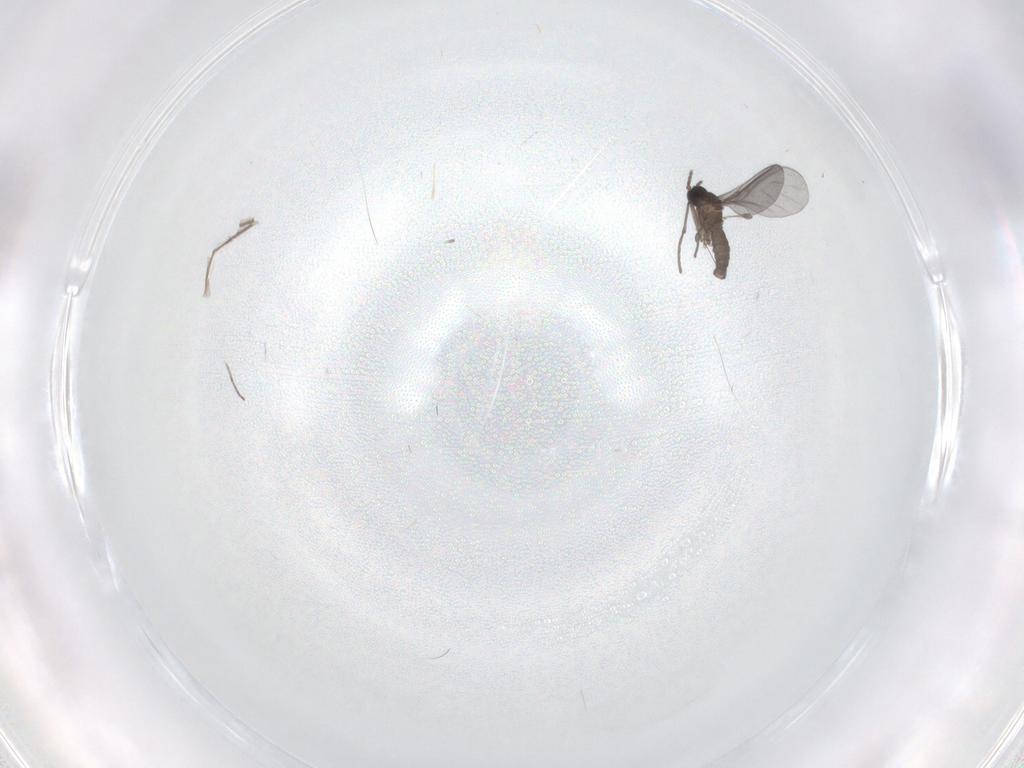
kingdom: Animalia
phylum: Arthropoda
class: Insecta
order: Diptera
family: Sciaridae
